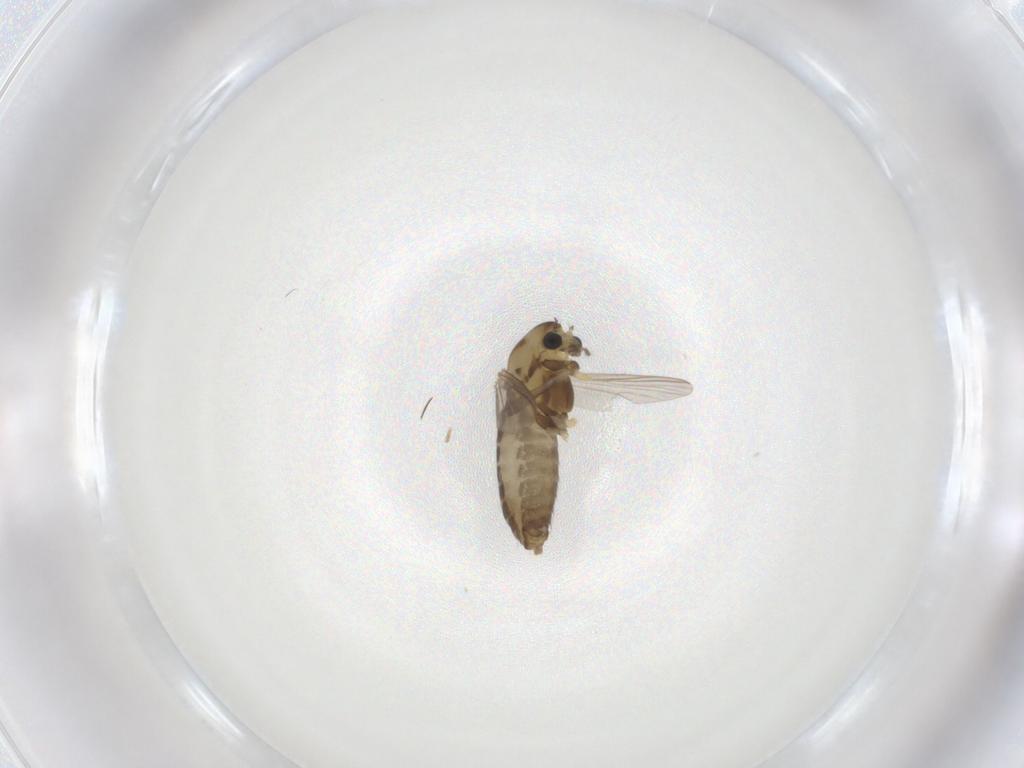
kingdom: Animalia
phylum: Arthropoda
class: Insecta
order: Diptera
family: Chironomidae
